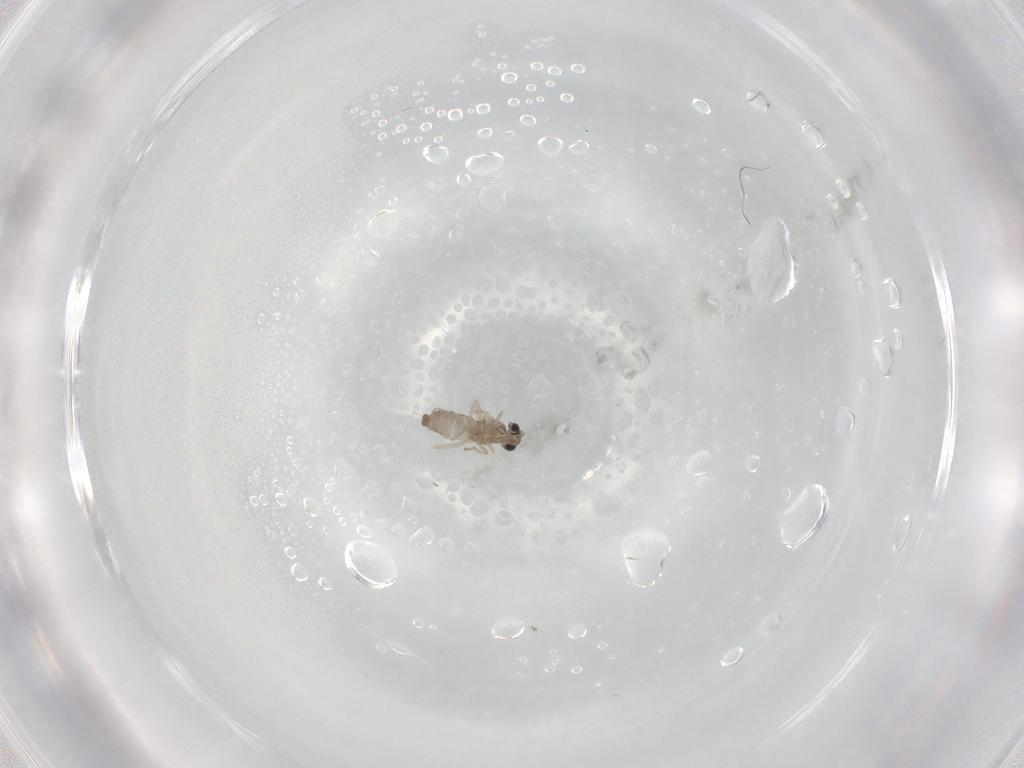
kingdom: Animalia
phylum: Arthropoda
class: Insecta
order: Diptera
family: Cecidomyiidae
